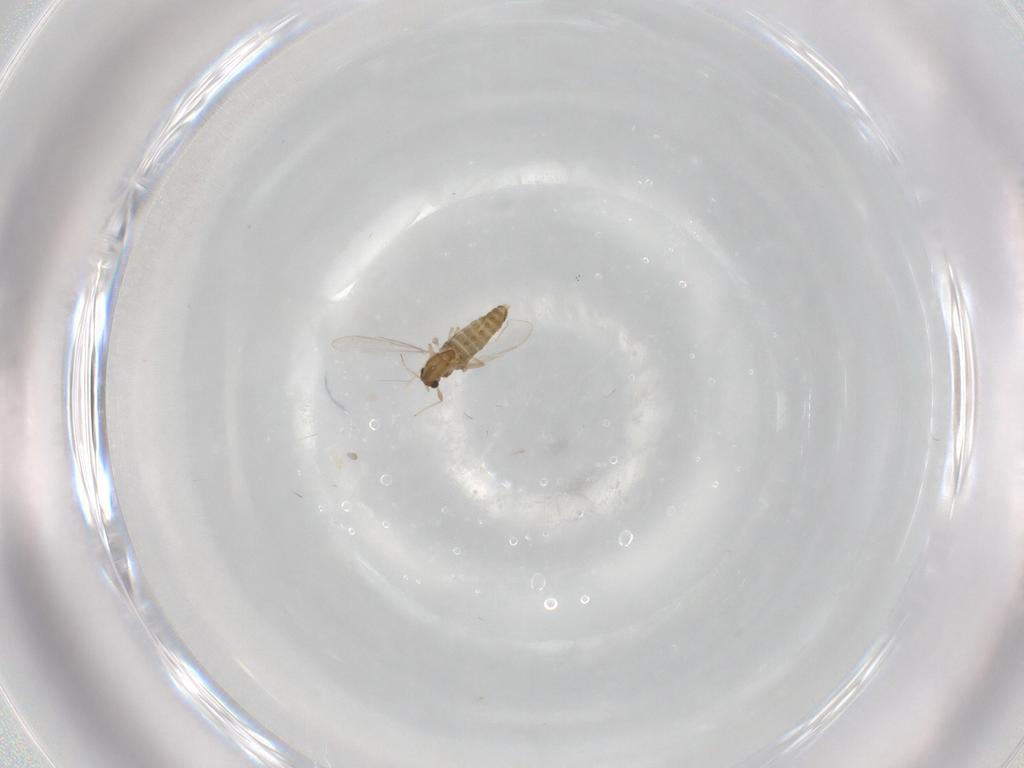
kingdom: Animalia
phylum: Arthropoda
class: Insecta
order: Diptera
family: Chironomidae
